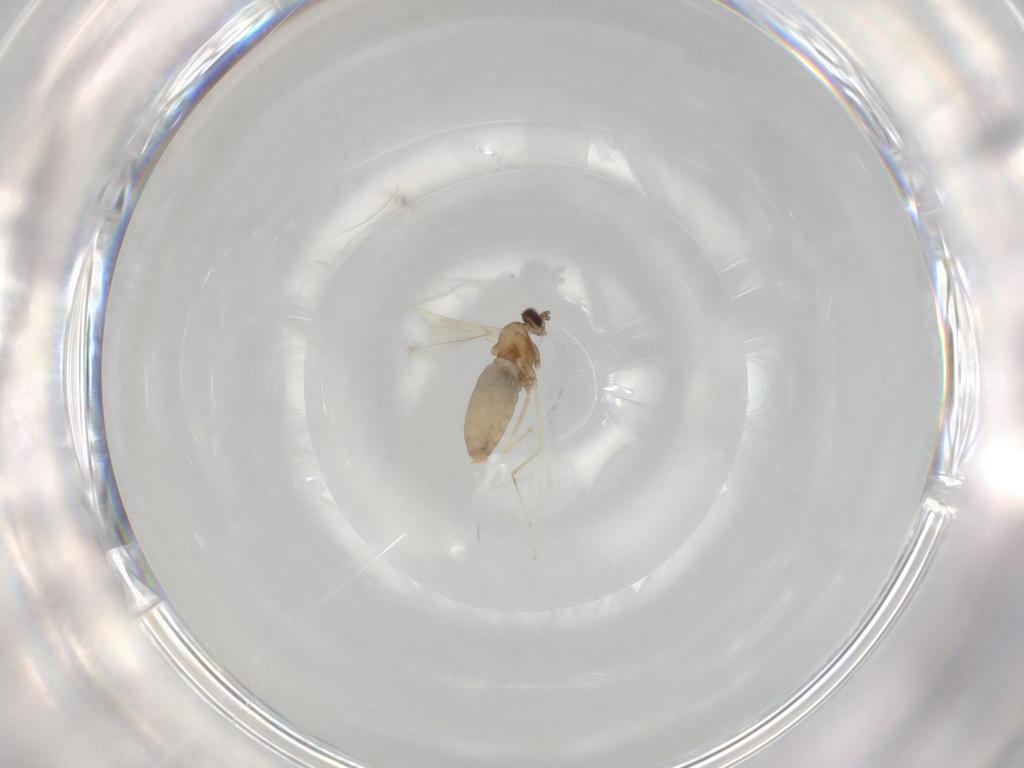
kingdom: Animalia
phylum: Arthropoda
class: Insecta
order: Diptera
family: Cecidomyiidae
